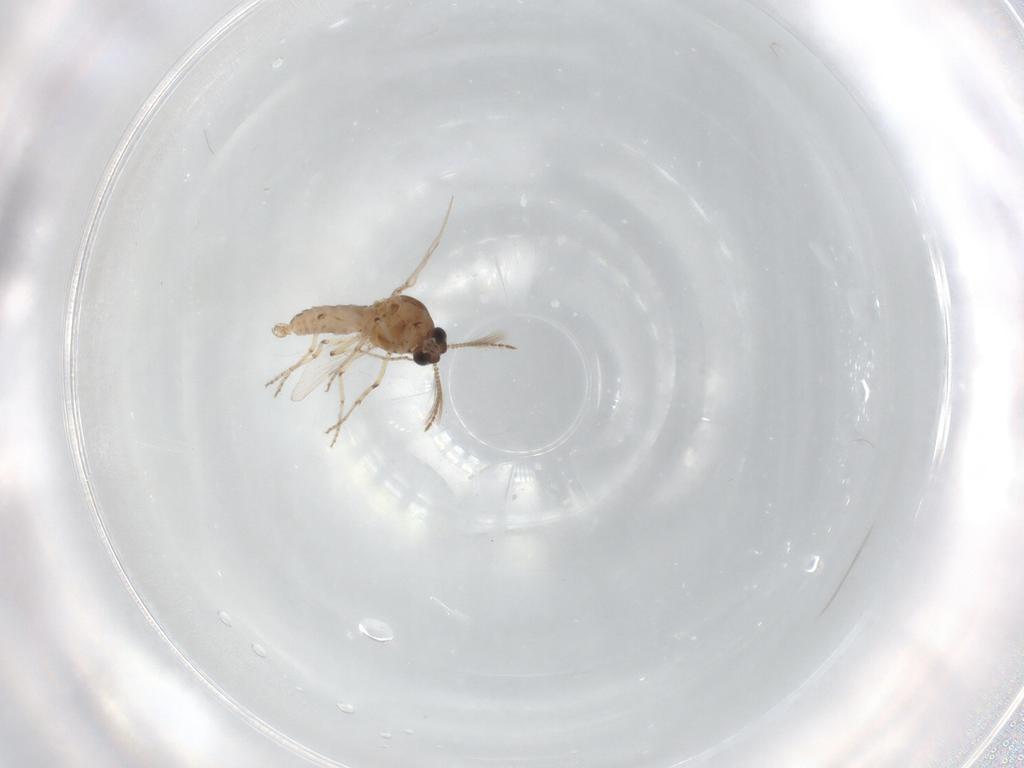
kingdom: Animalia
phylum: Arthropoda
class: Insecta
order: Diptera
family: Ceratopogonidae
